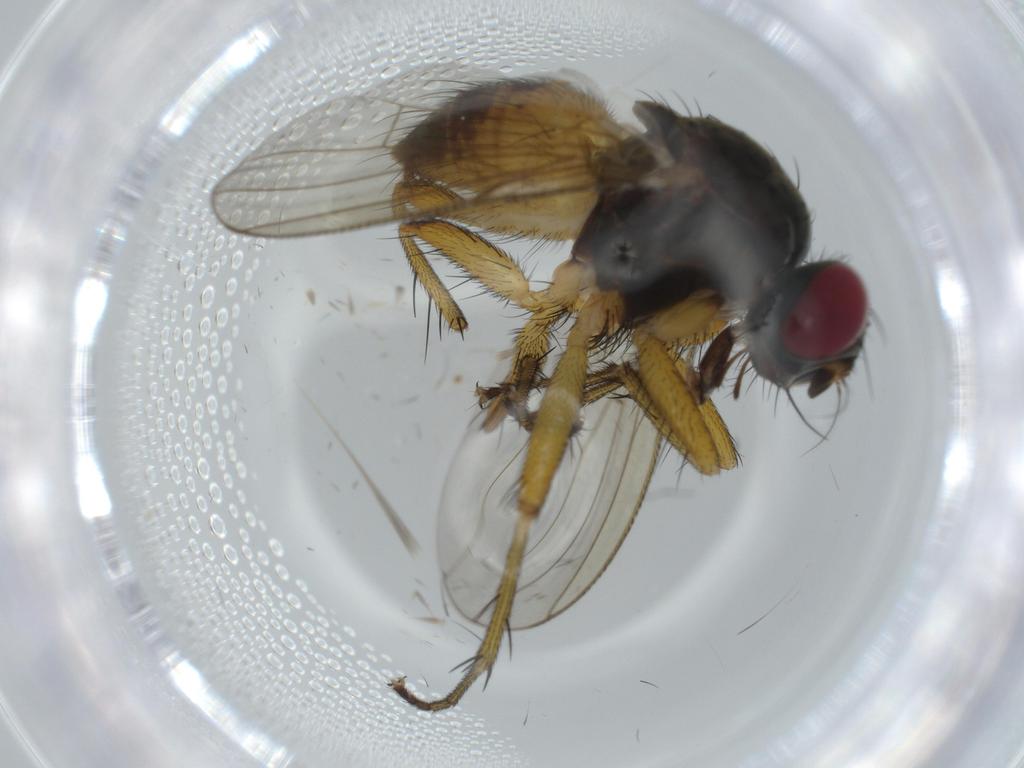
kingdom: Animalia
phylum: Arthropoda
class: Insecta
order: Diptera
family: Muscidae
